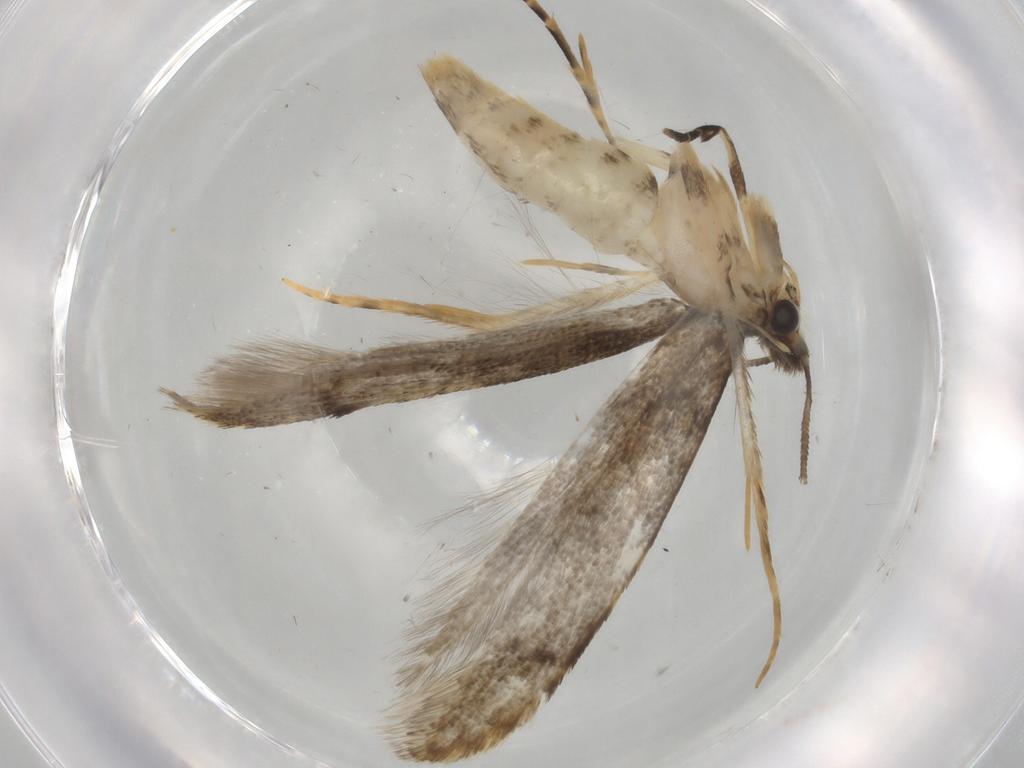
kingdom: Animalia
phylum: Arthropoda
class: Insecta
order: Lepidoptera
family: Tineidae
